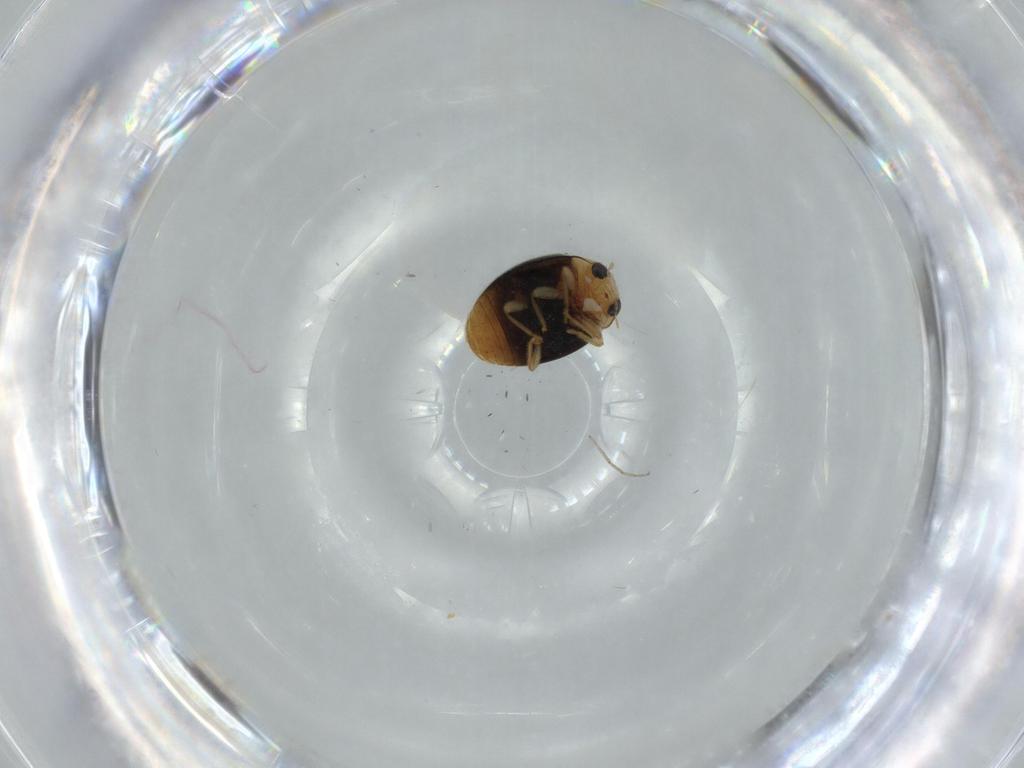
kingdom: Animalia
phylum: Arthropoda
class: Insecta
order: Coleoptera
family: Coccinellidae
